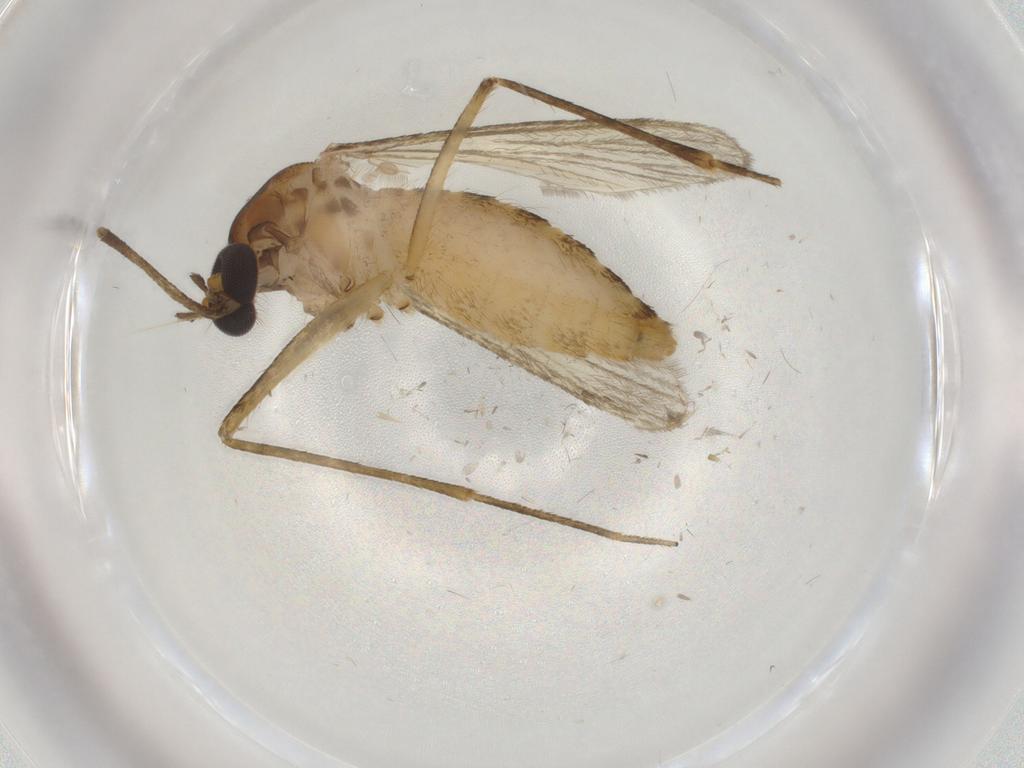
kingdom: Animalia
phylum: Arthropoda
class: Insecta
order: Diptera
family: Culicidae
